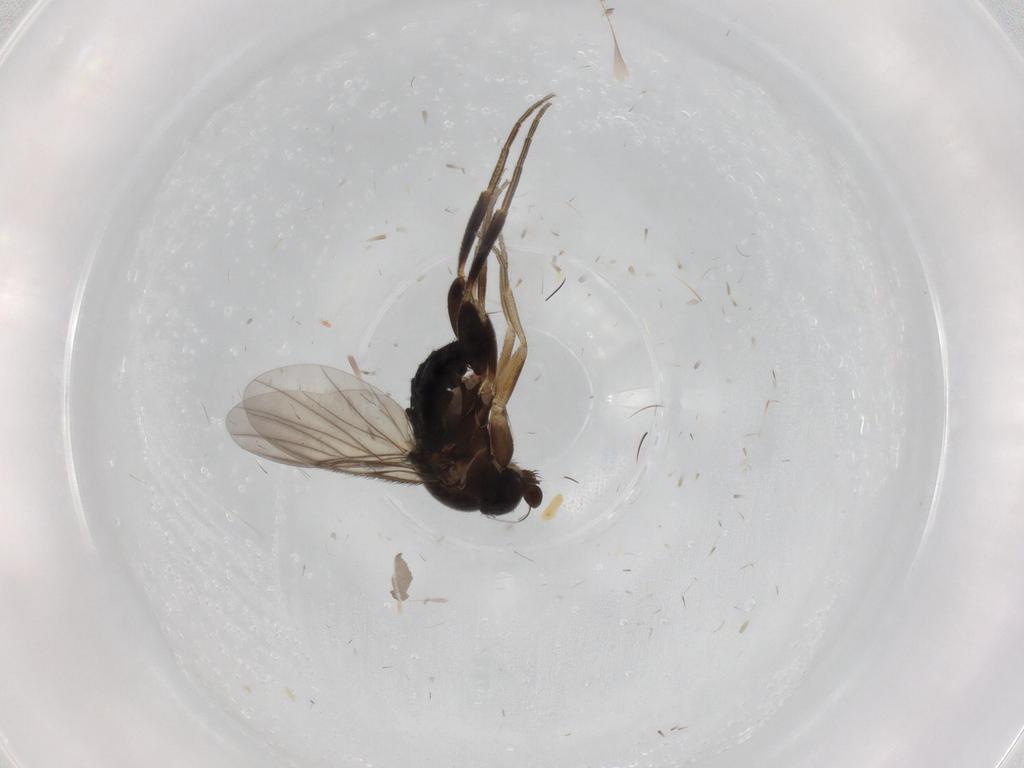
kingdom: Animalia
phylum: Arthropoda
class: Insecta
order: Diptera
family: Phoridae
